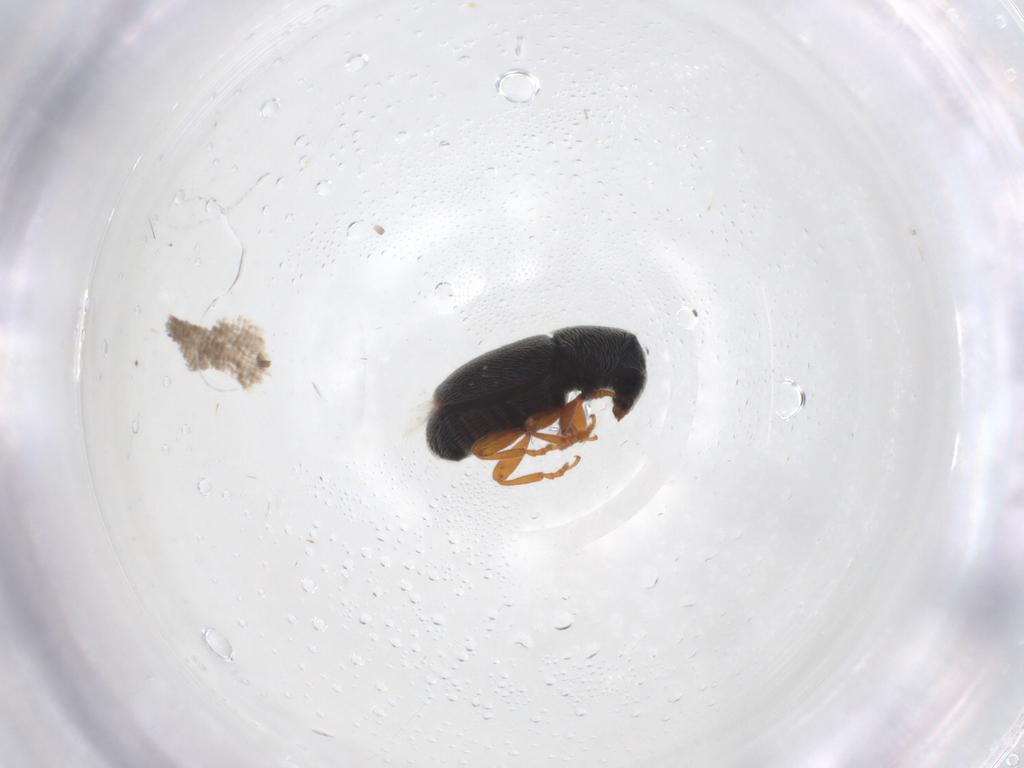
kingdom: Animalia
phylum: Arthropoda
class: Insecta
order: Coleoptera
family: Anthribidae
